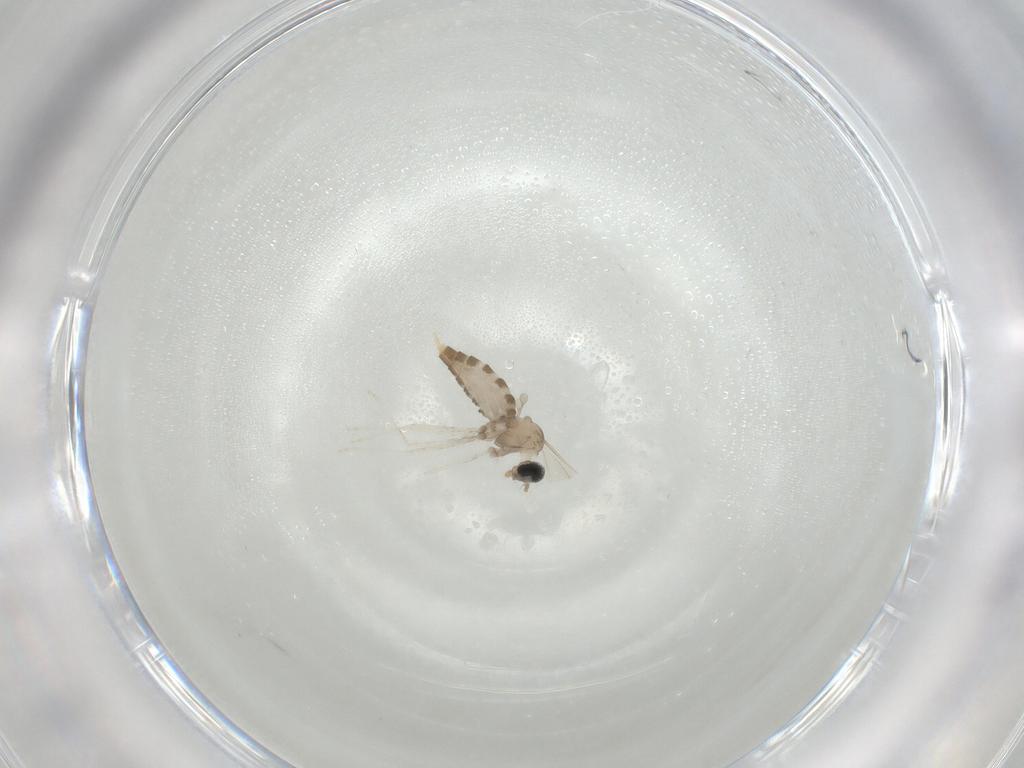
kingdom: Animalia
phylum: Arthropoda
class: Insecta
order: Diptera
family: Cecidomyiidae
